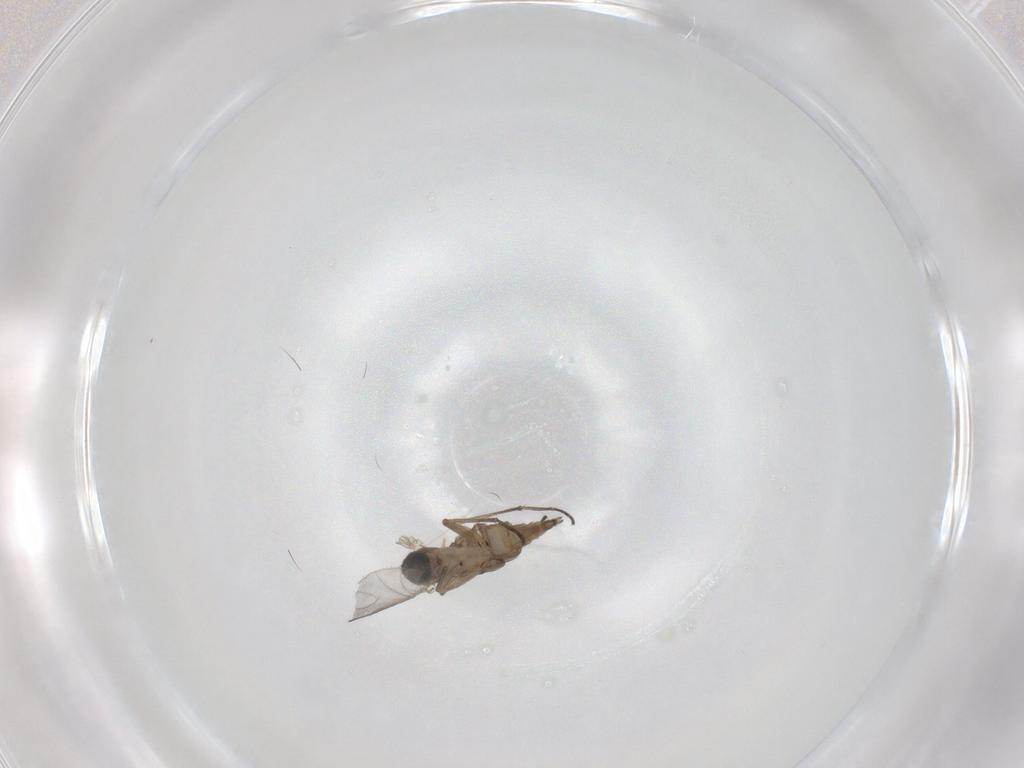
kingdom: Animalia
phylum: Arthropoda
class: Insecta
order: Diptera
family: Sciaridae
